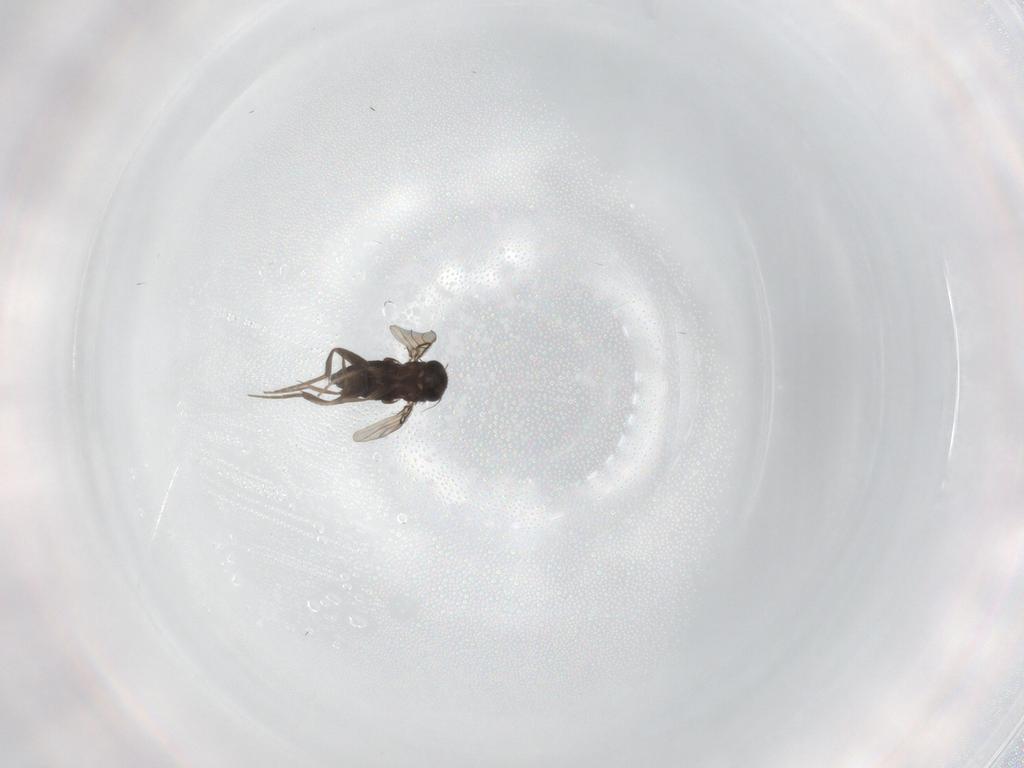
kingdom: Animalia
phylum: Arthropoda
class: Insecta
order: Diptera
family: Phoridae
